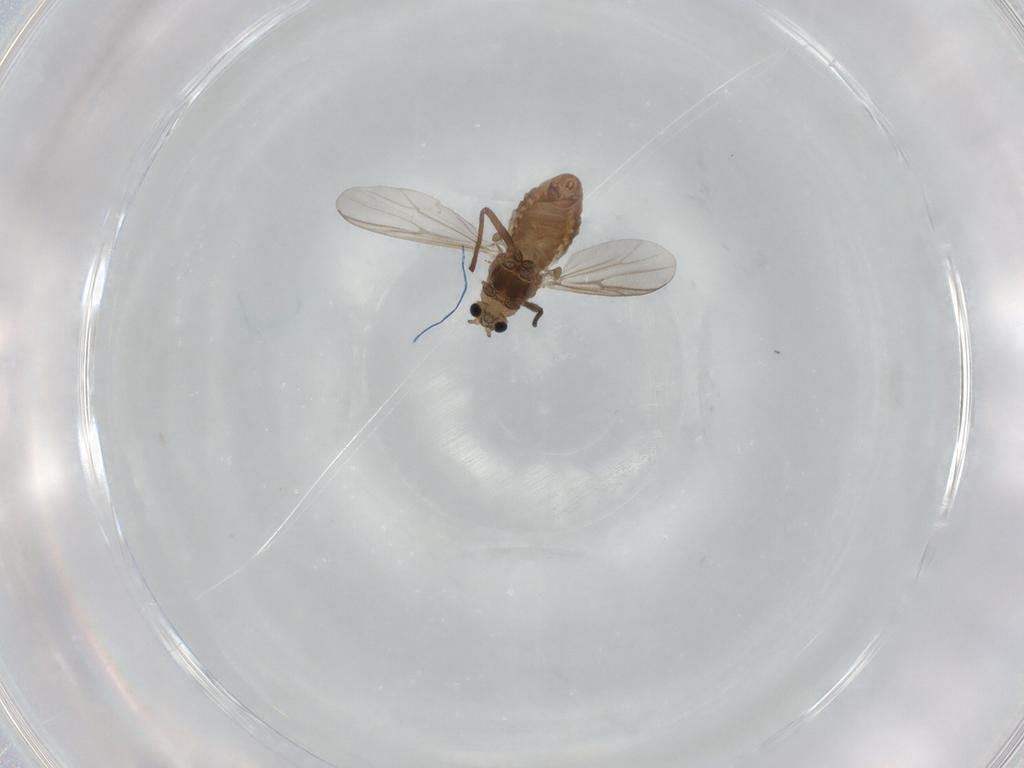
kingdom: Animalia
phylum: Arthropoda
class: Insecta
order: Diptera
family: Chironomidae
